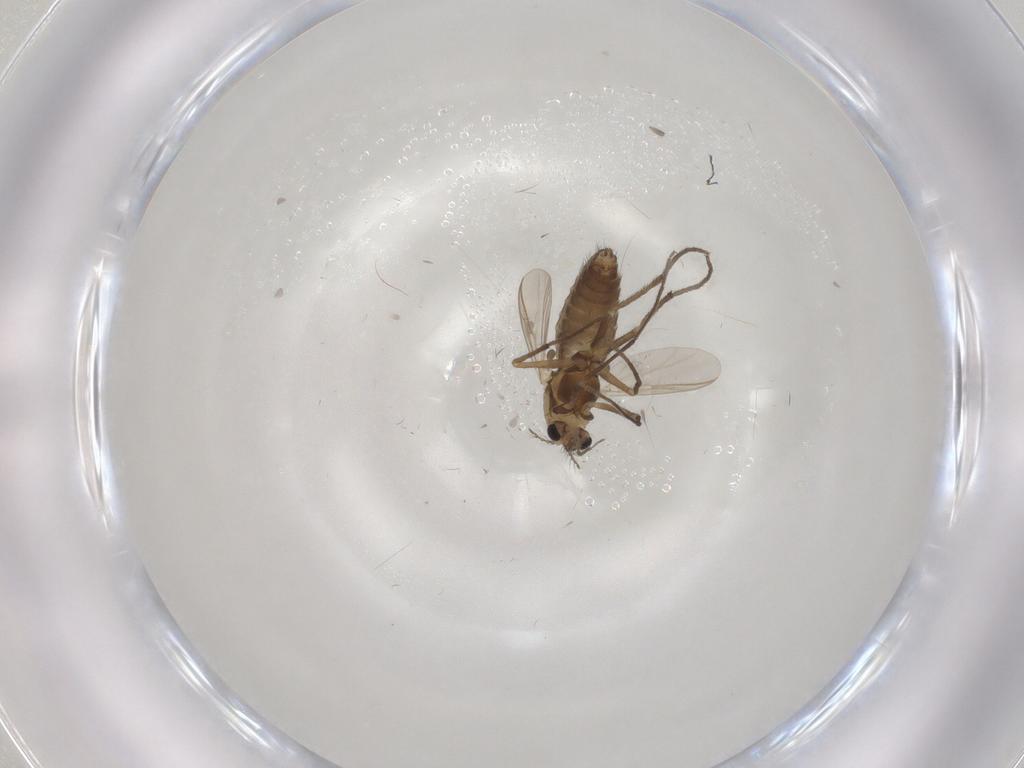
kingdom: Animalia
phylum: Arthropoda
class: Insecta
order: Diptera
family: Chironomidae
